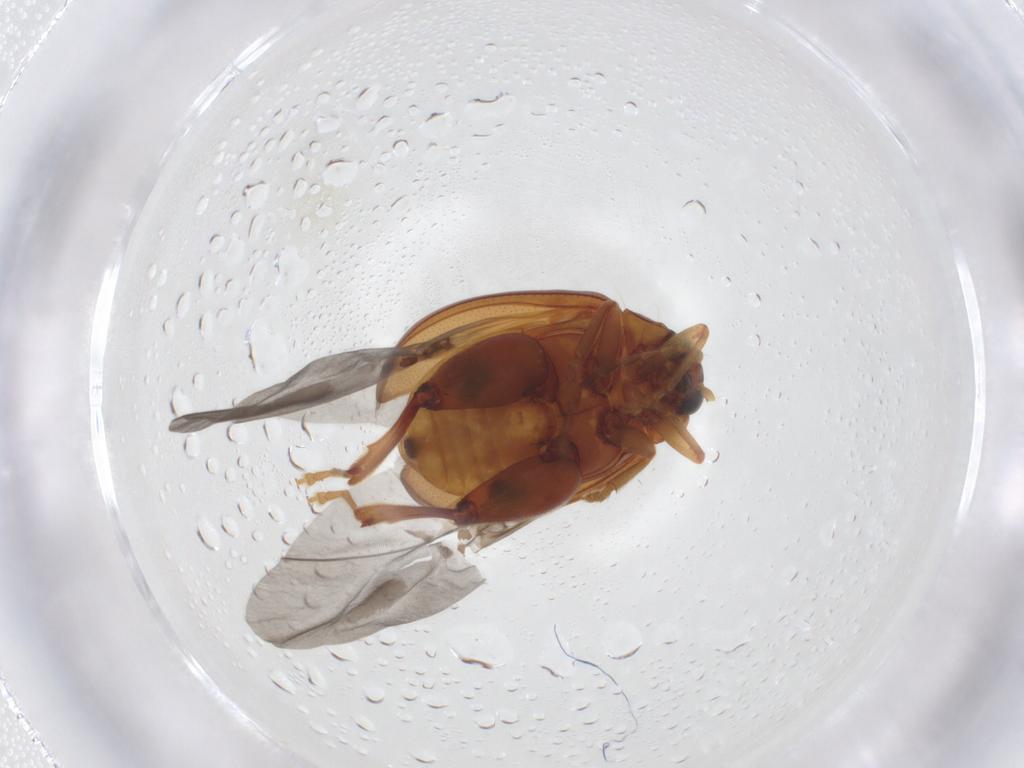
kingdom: Animalia
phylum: Arthropoda
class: Insecta
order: Coleoptera
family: Chrysomelidae
